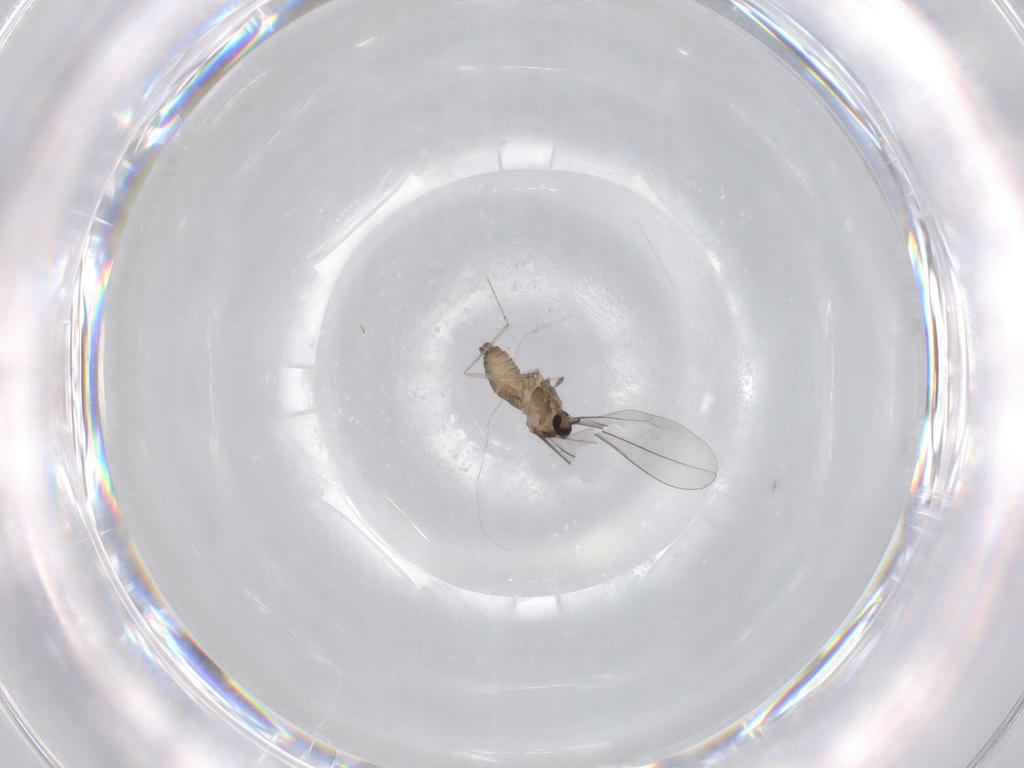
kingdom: Animalia
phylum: Arthropoda
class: Insecta
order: Diptera
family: Cecidomyiidae
